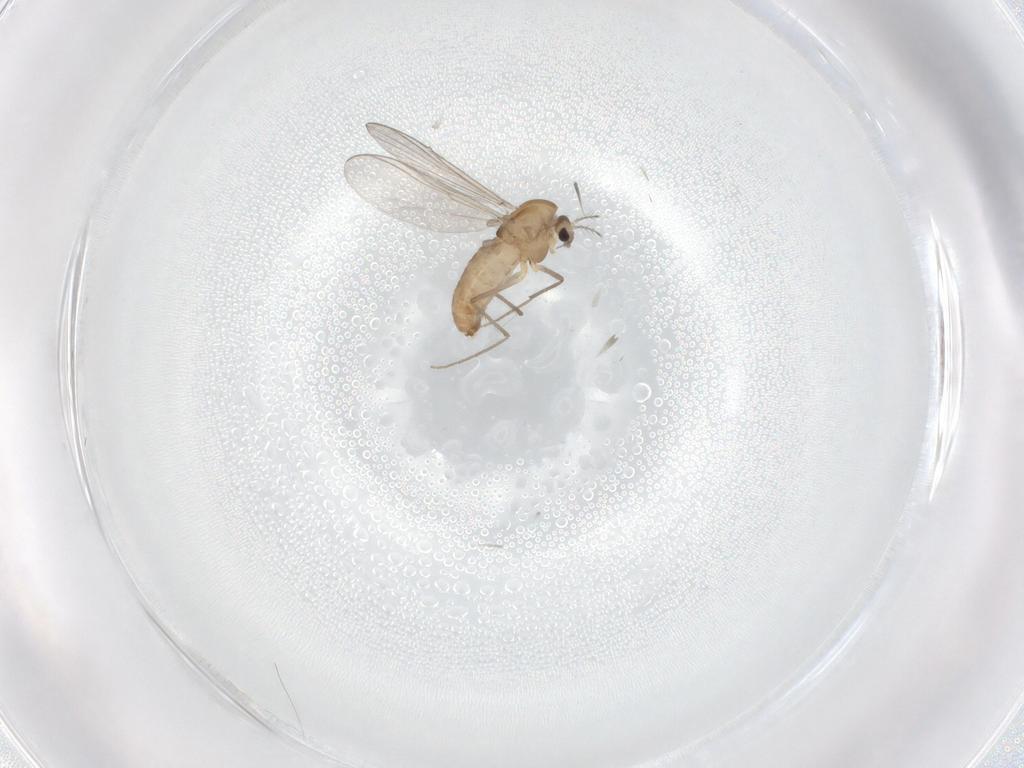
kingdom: Animalia
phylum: Arthropoda
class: Insecta
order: Diptera
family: Chironomidae
